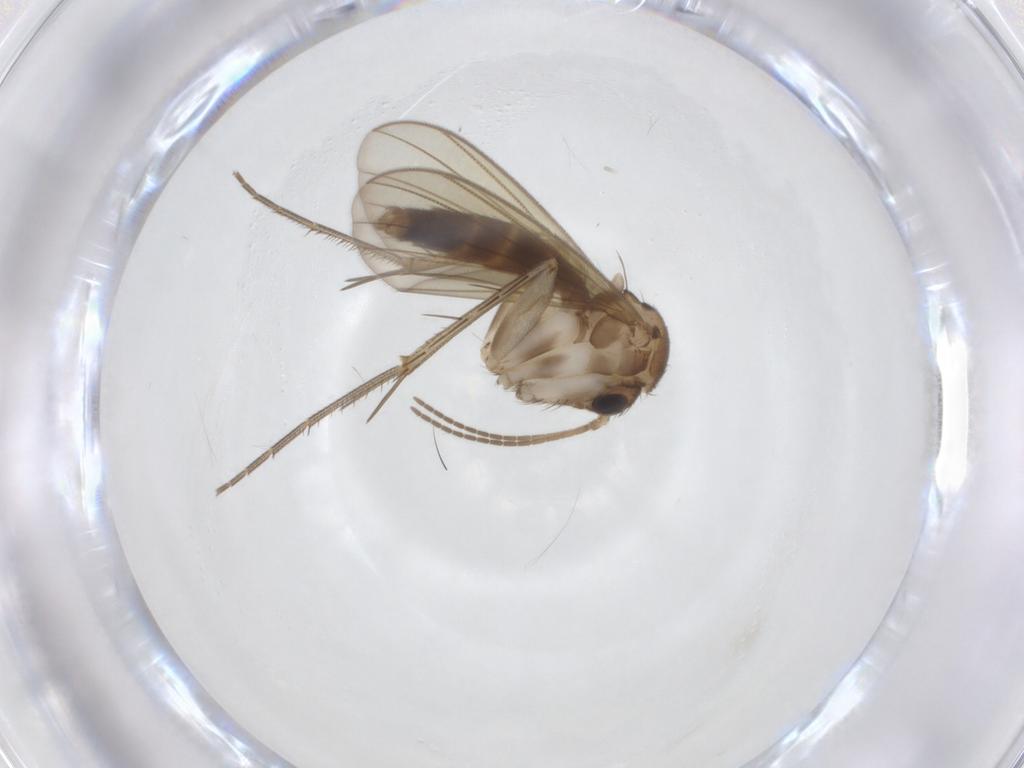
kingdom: Animalia
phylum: Arthropoda
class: Insecta
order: Diptera
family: Mycetophilidae
